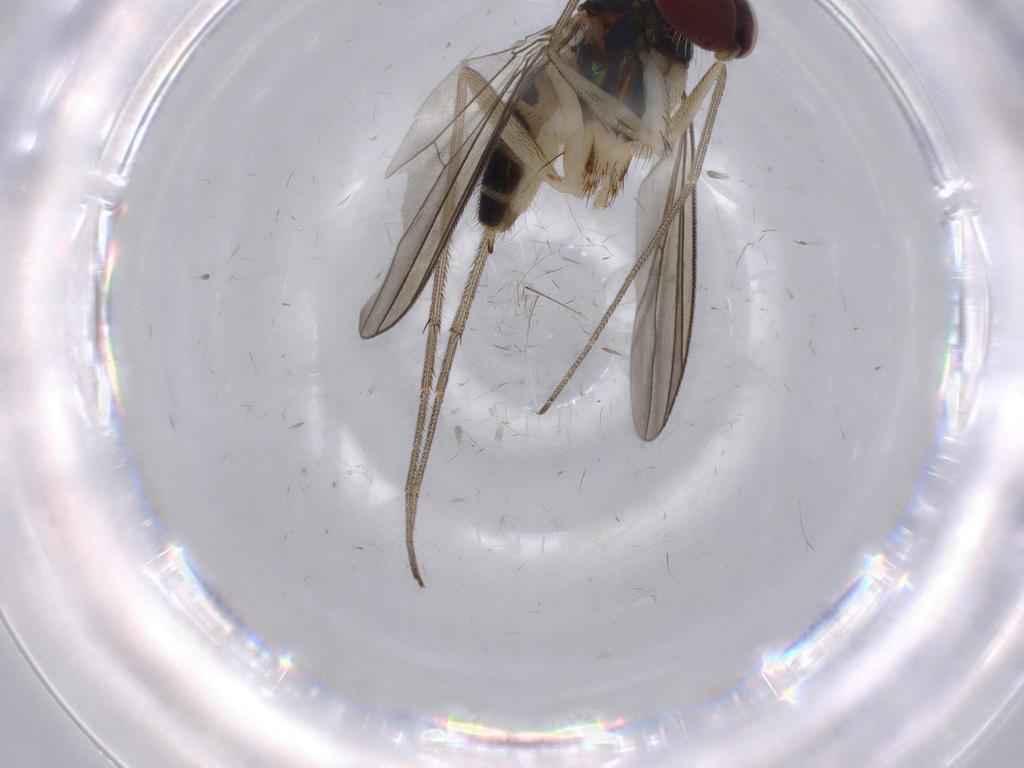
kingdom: Animalia
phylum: Arthropoda
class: Insecta
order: Diptera
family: Dolichopodidae
